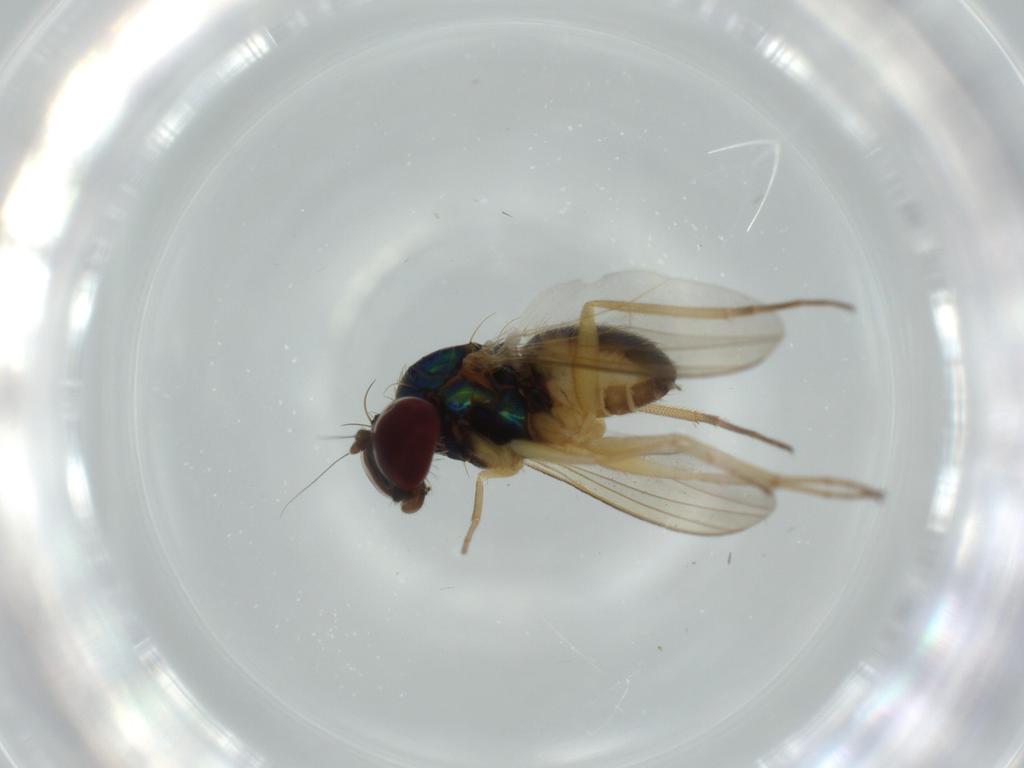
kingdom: Animalia
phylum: Arthropoda
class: Insecta
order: Diptera
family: Dolichopodidae
